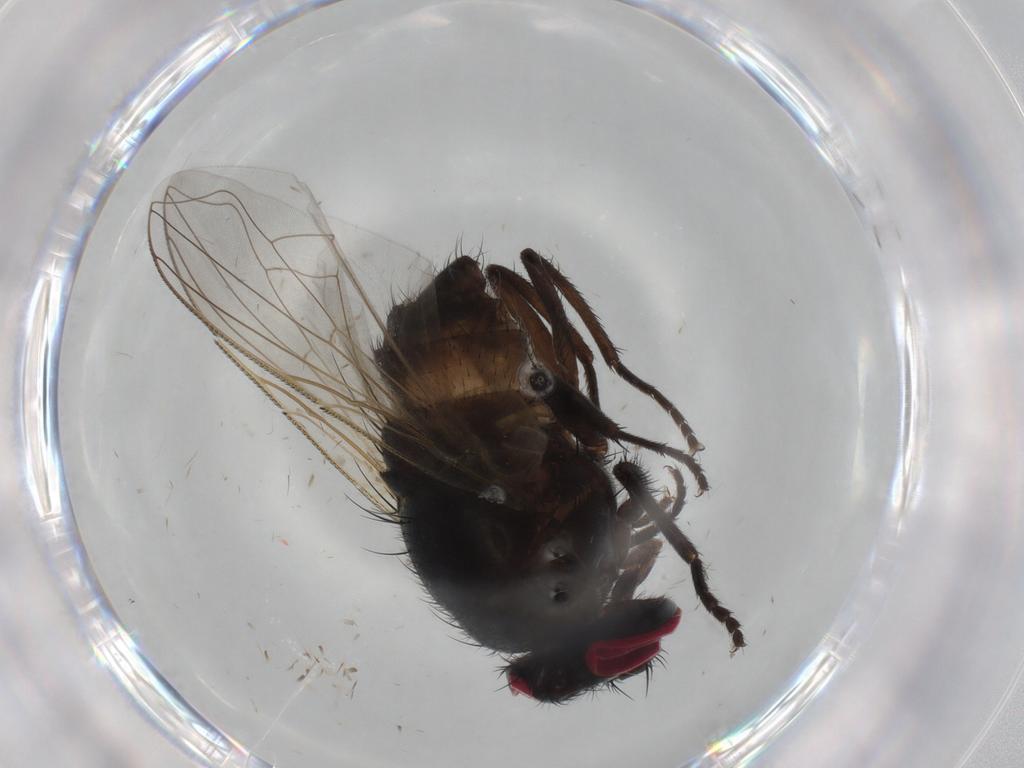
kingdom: Animalia
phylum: Arthropoda
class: Insecta
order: Diptera
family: Muscidae
